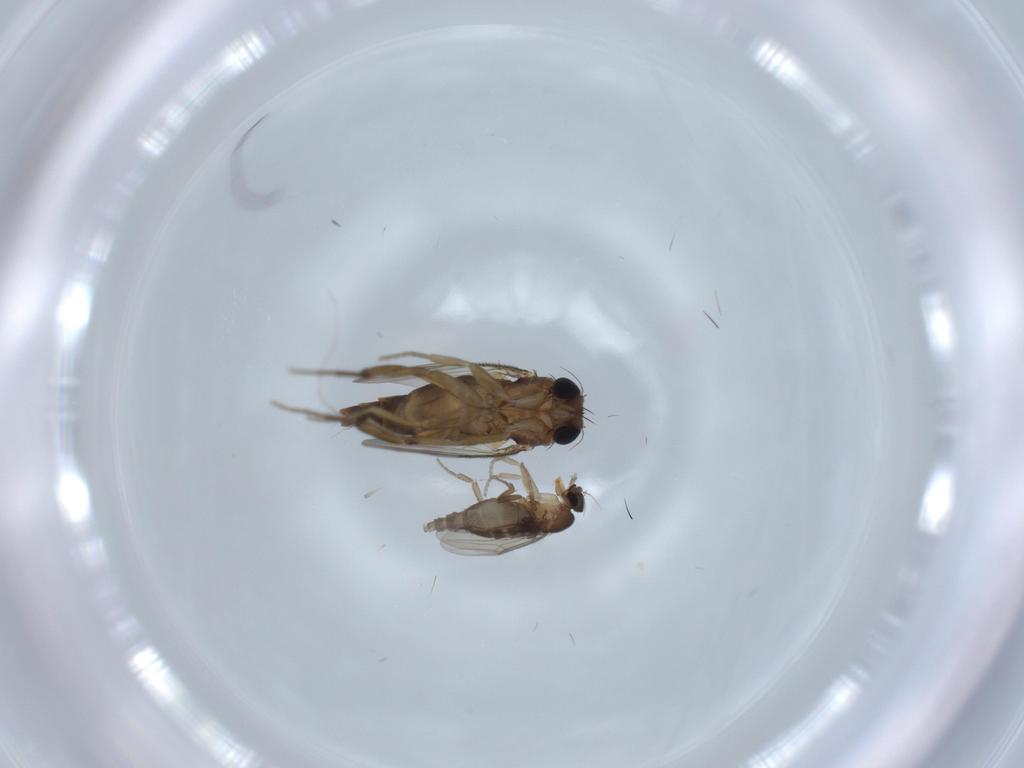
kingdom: Animalia
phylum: Arthropoda
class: Insecta
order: Diptera
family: Phoridae
